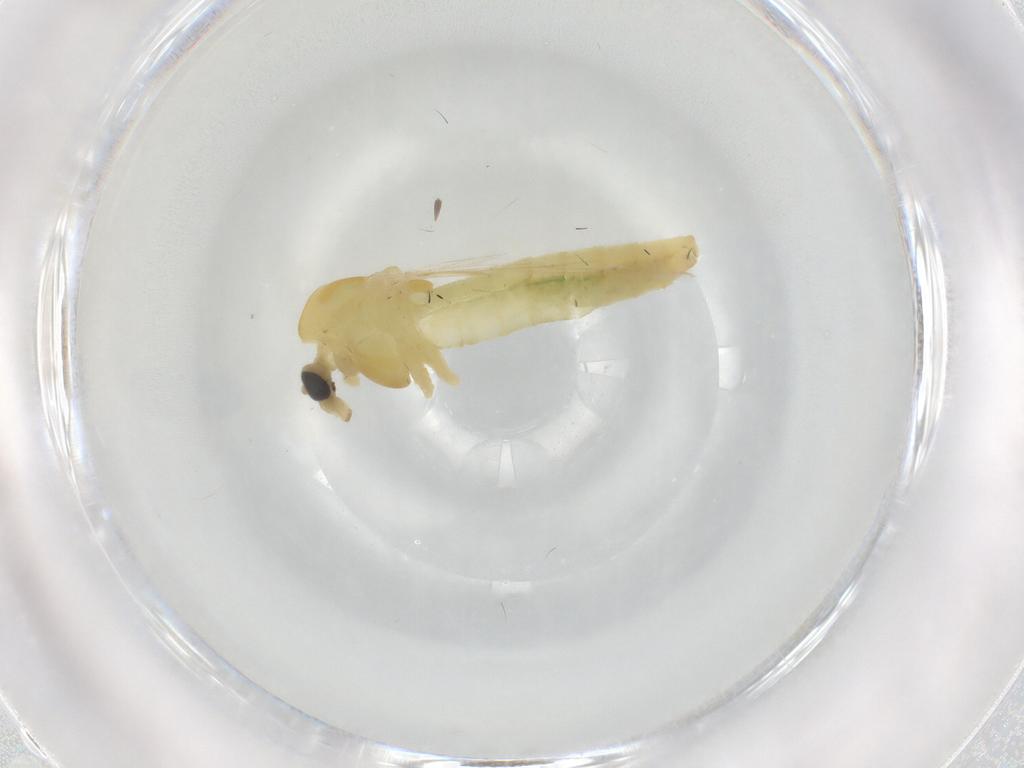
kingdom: Animalia
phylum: Arthropoda
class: Insecta
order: Diptera
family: Chironomidae
